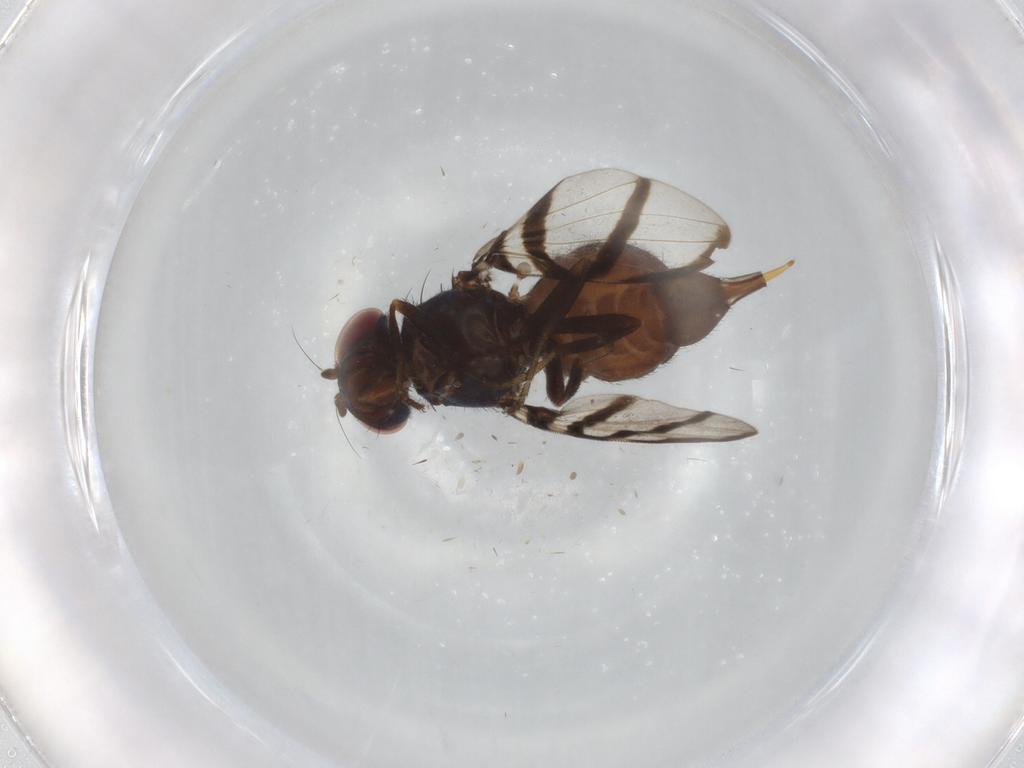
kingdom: Animalia
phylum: Arthropoda
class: Insecta
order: Diptera
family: Ulidiidae
